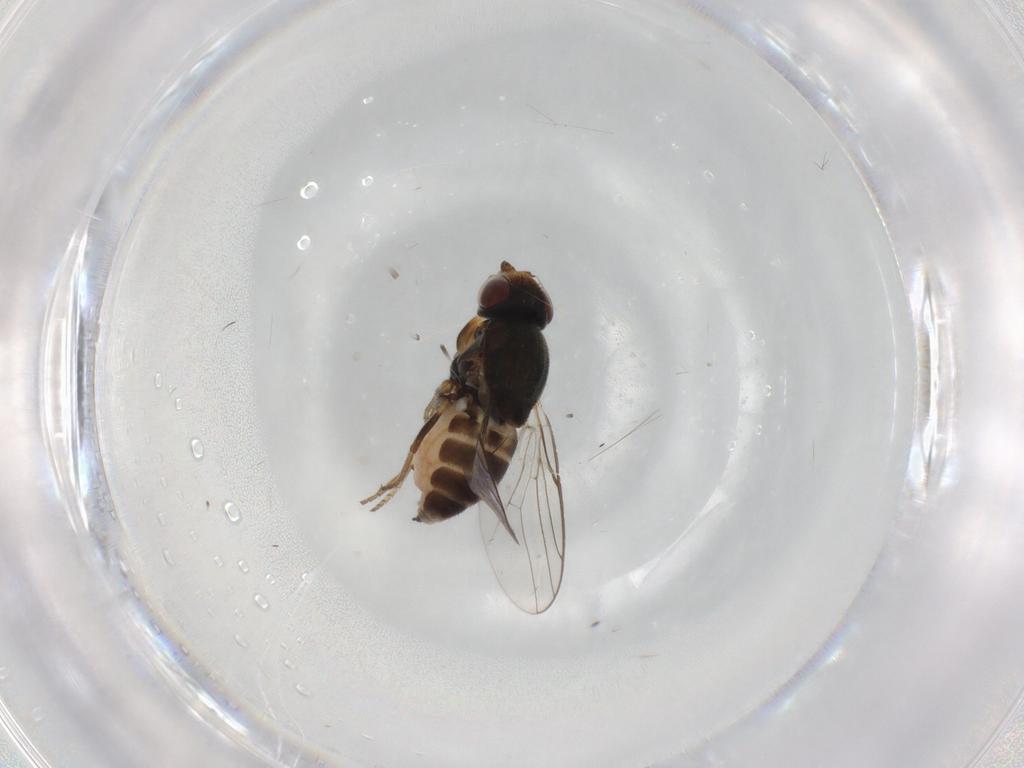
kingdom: Animalia
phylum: Arthropoda
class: Insecta
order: Diptera
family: Chloropidae
